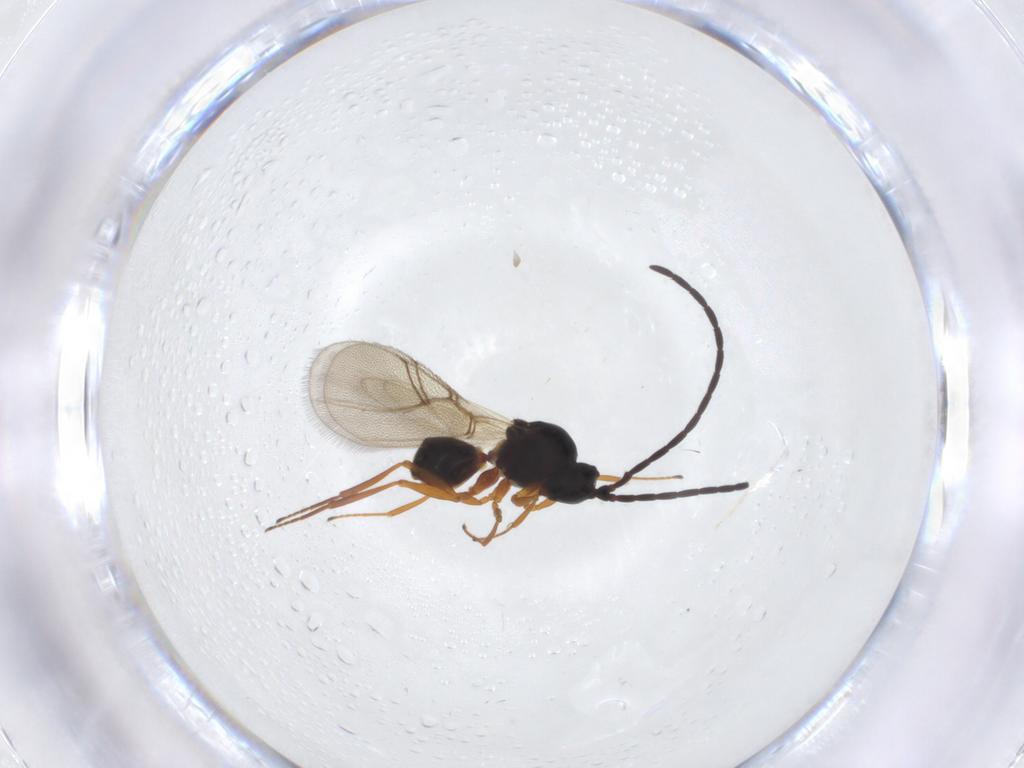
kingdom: Animalia
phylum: Arthropoda
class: Insecta
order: Hymenoptera
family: Figitidae
